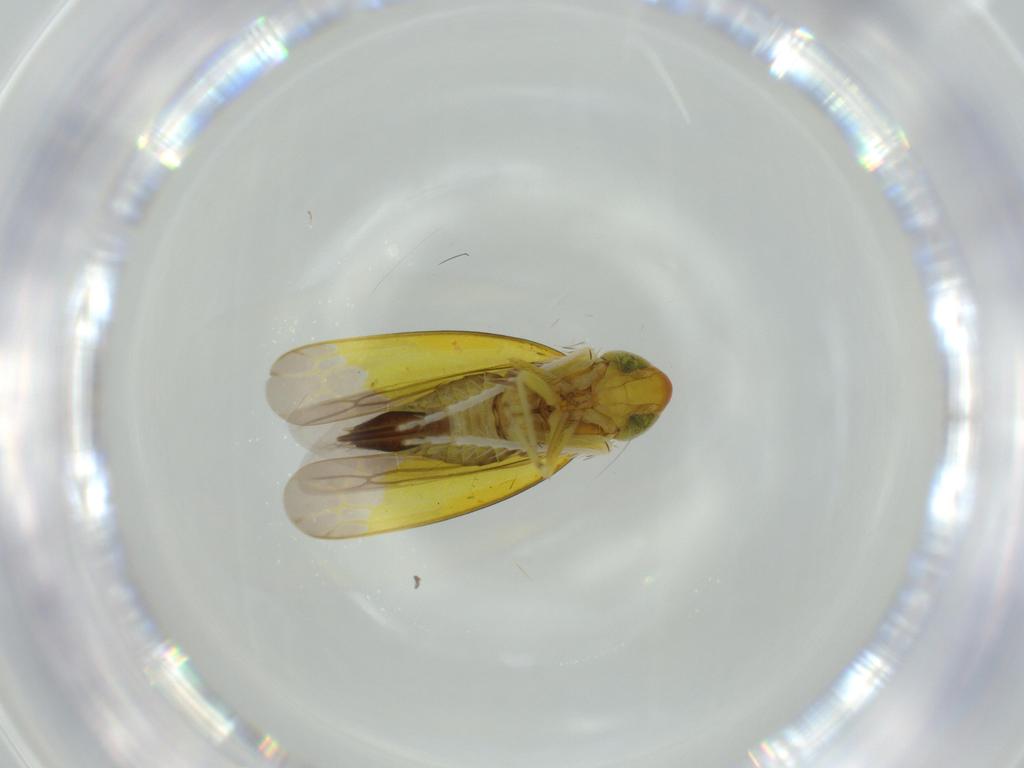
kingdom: Animalia
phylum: Arthropoda
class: Insecta
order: Hemiptera
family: Cicadellidae
